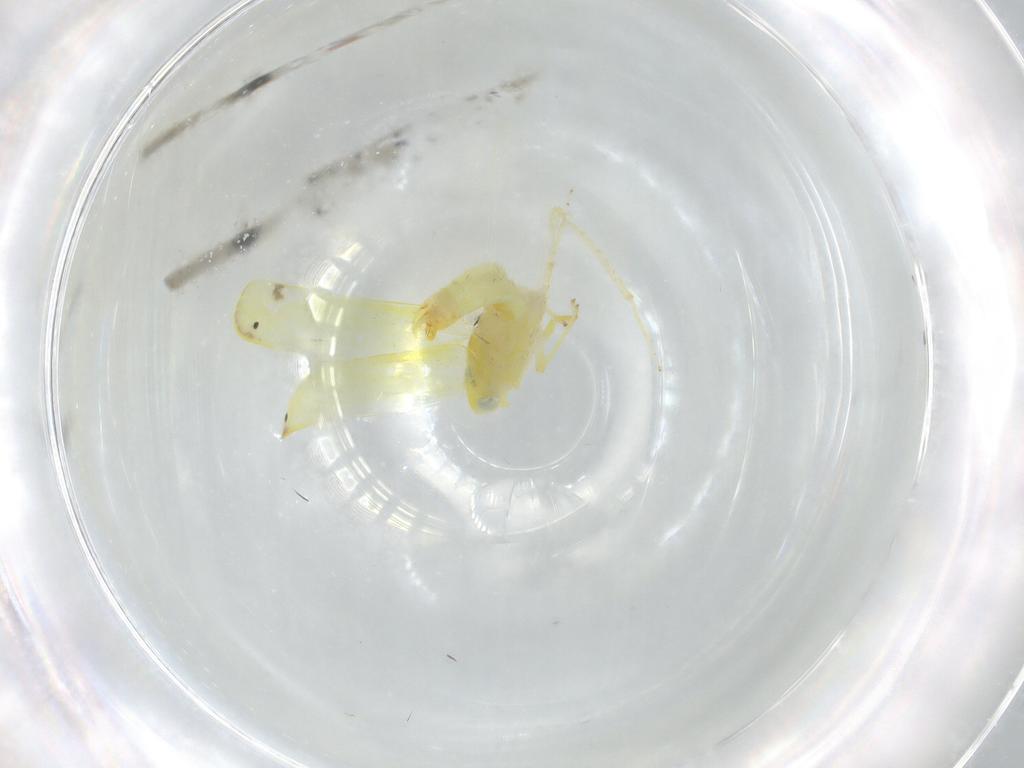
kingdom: Animalia
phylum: Arthropoda
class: Insecta
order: Hemiptera
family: Cicadellidae
